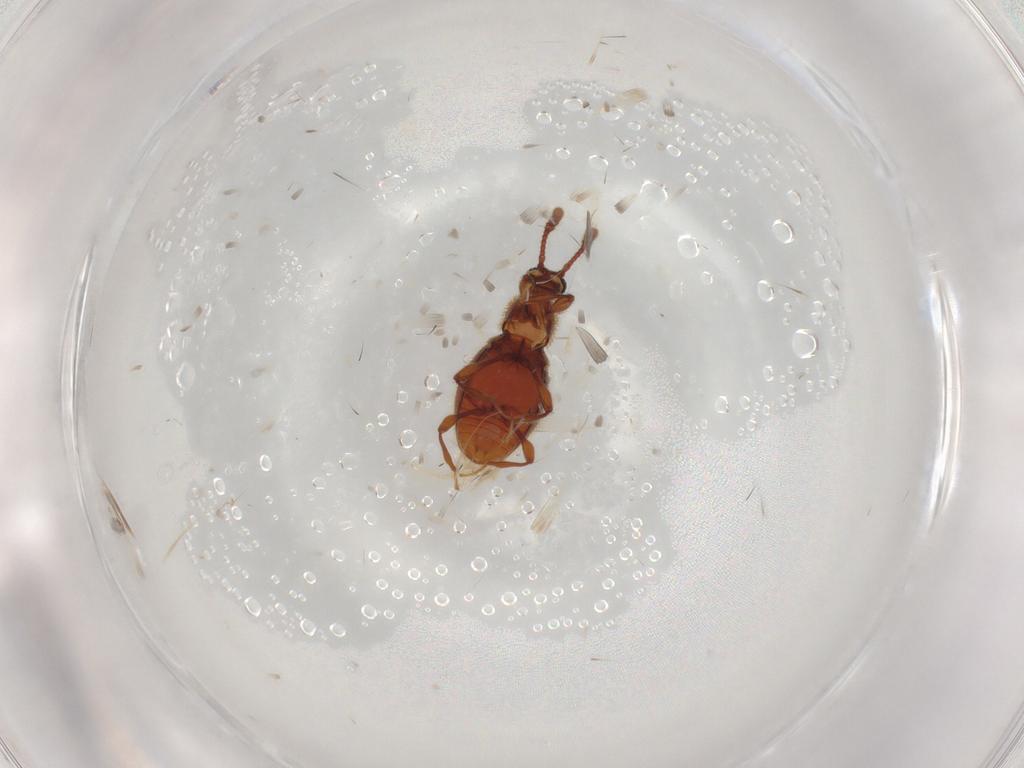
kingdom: Animalia
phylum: Arthropoda
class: Insecta
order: Coleoptera
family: Staphylinidae
